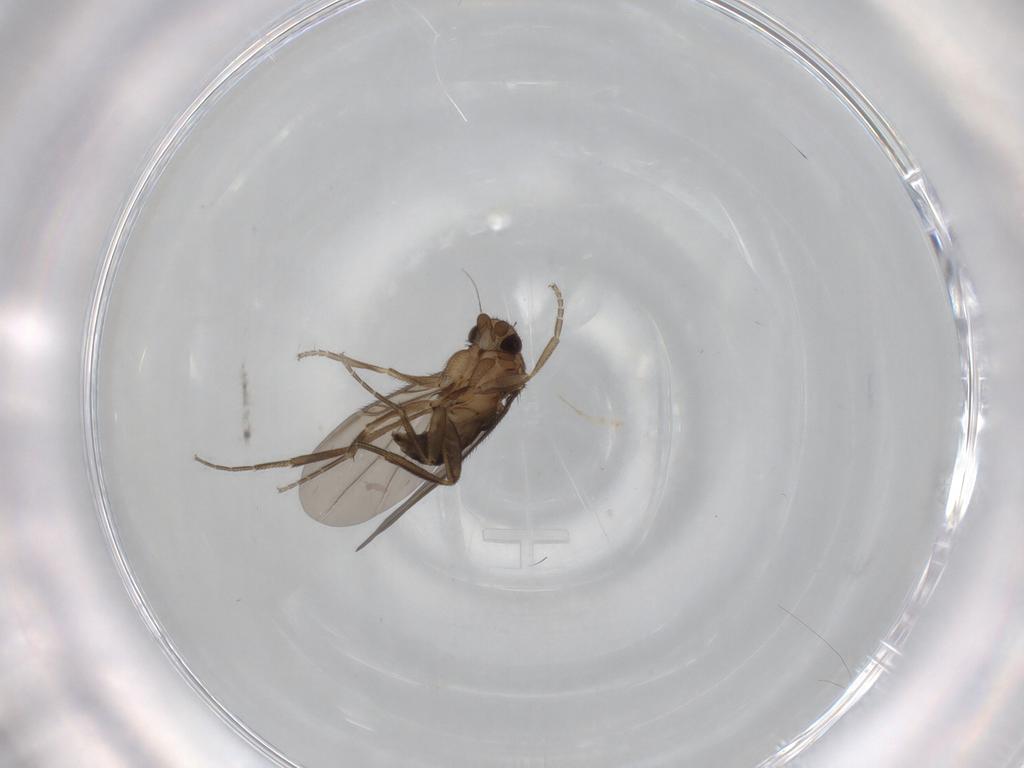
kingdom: Animalia
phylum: Arthropoda
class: Insecta
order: Diptera
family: Phoridae
